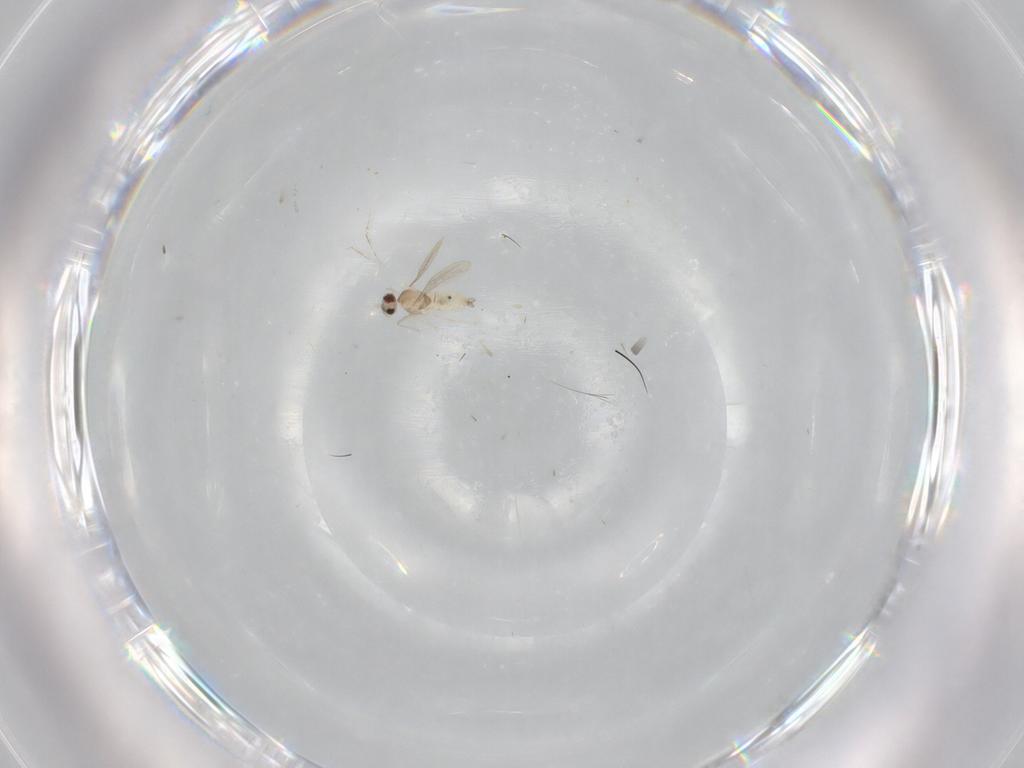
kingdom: Animalia
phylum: Arthropoda
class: Insecta
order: Diptera
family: Cecidomyiidae
